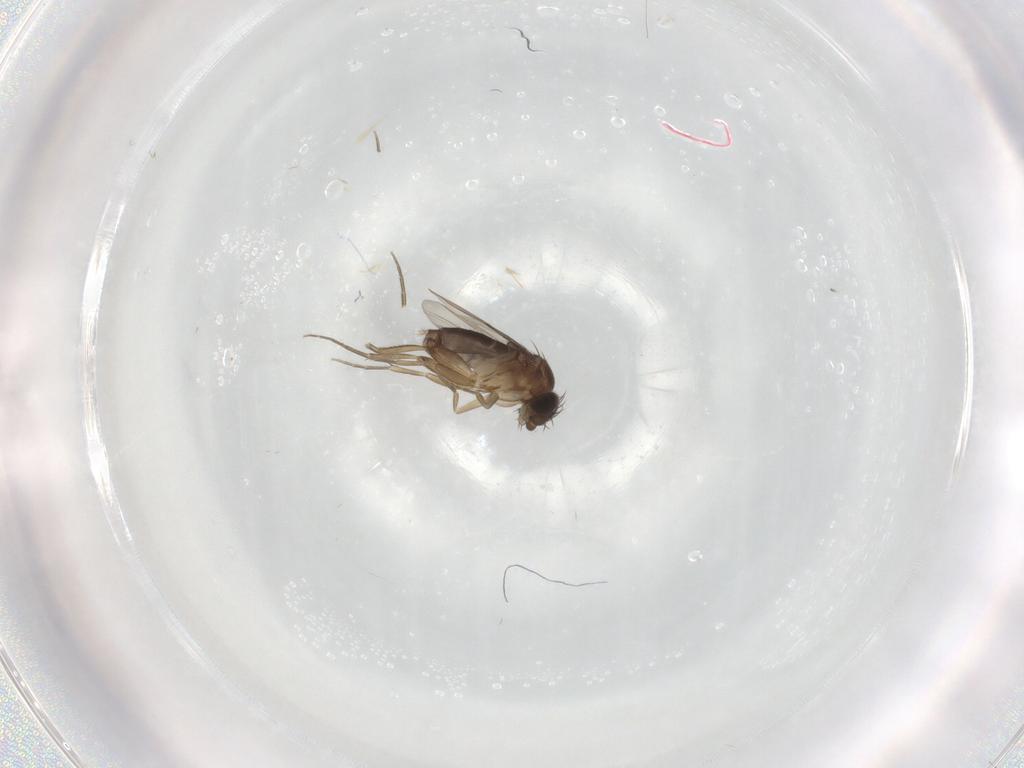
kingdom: Animalia
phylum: Arthropoda
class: Insecta
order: Diptera
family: Phoridae
